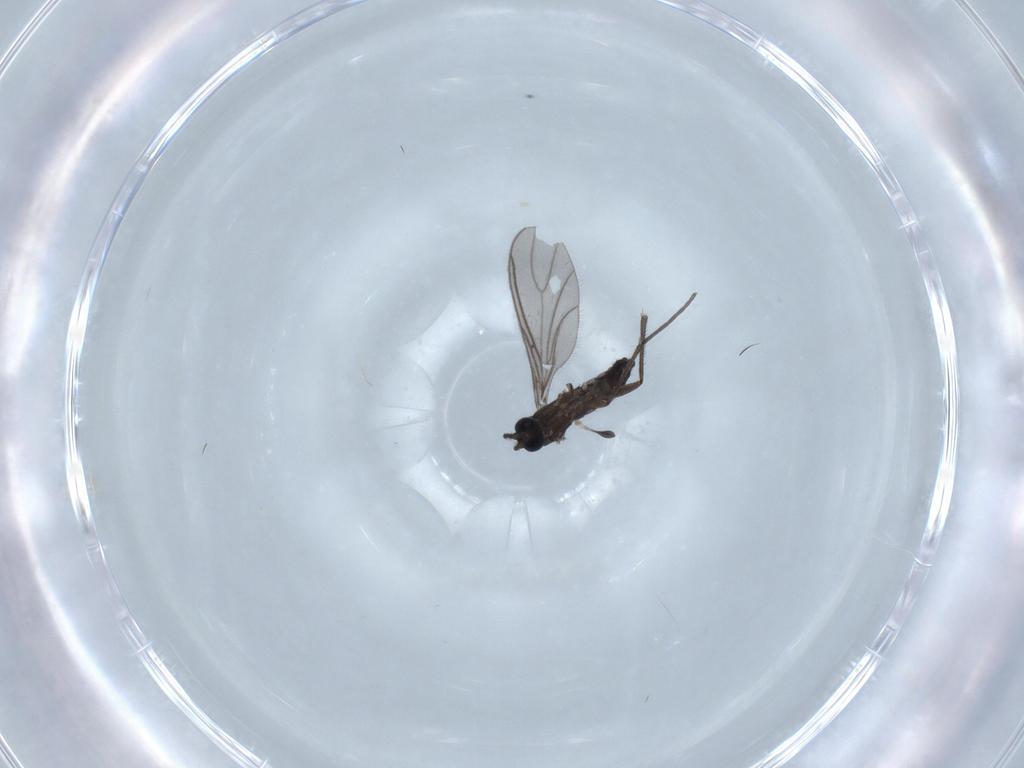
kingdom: Animalia
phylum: Arthropoda
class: Insecta
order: Diptera
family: Sciaridae
